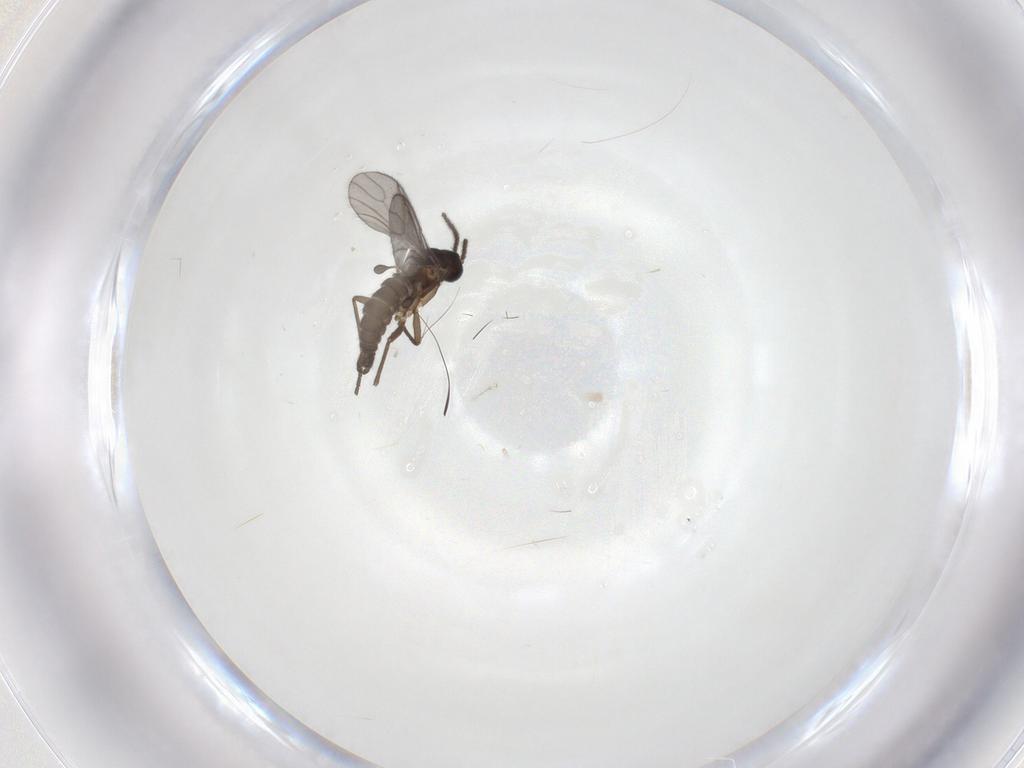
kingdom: Animalia
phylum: Arthropoda
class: Insecta
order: Diptera
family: Sciaridae
